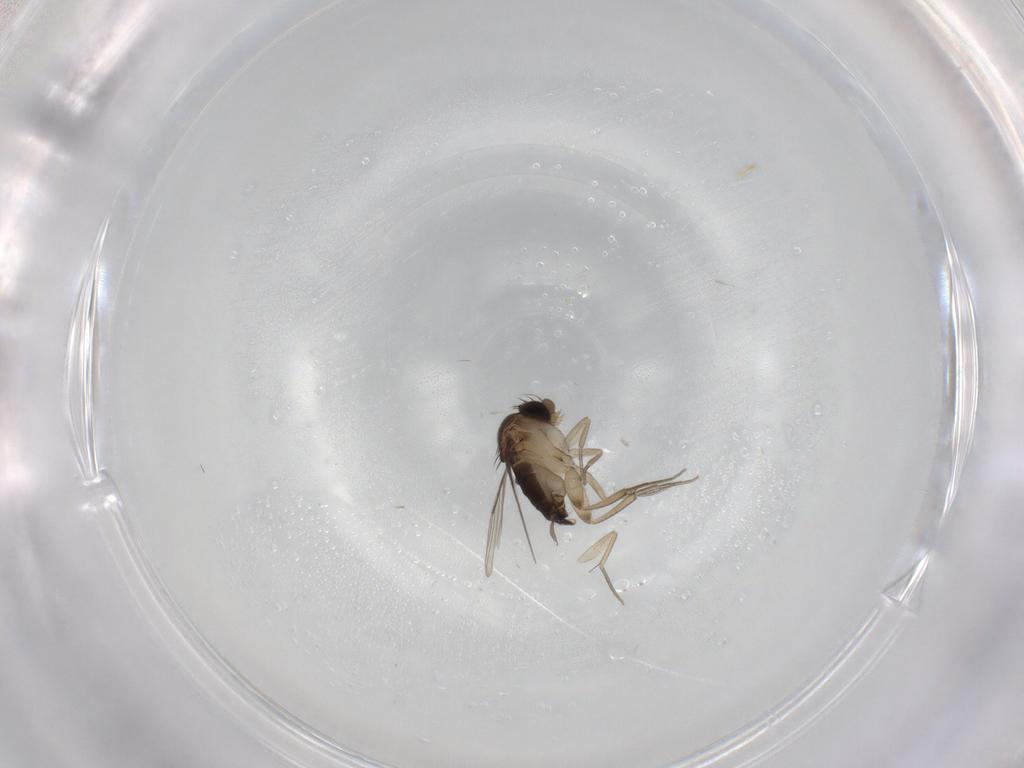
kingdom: Animalia
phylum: Arthropoda
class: Insecta
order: Diptera
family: Phoridae
